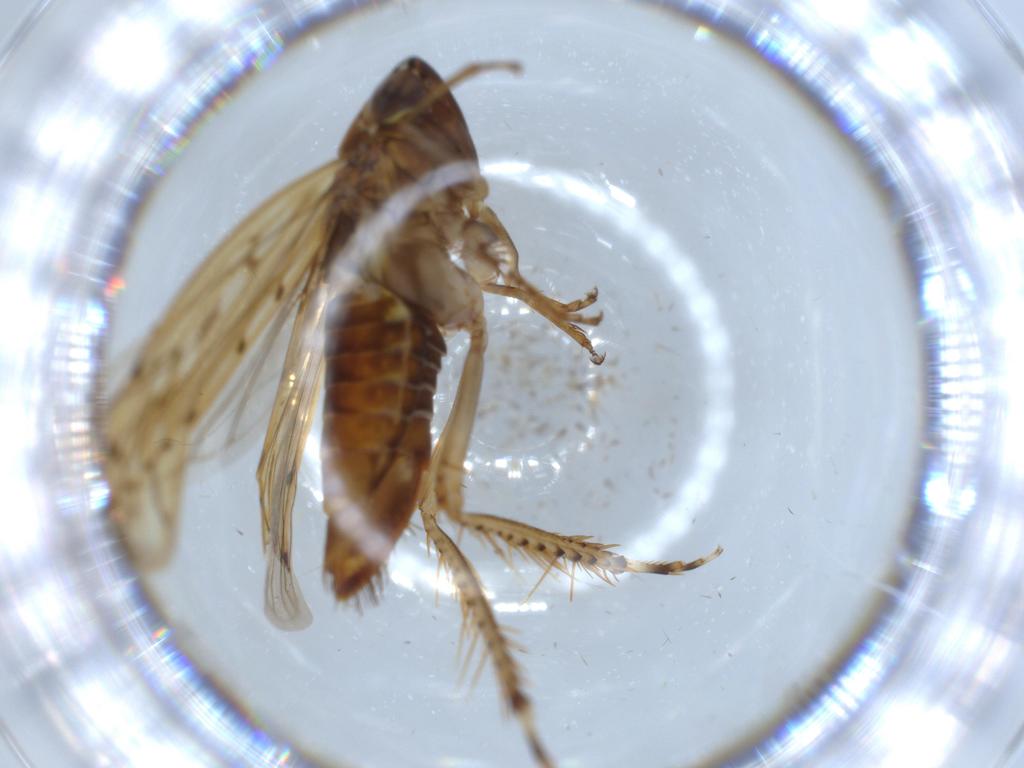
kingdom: Animalia
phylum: Arthropoda
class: Insecta
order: Hemiptera
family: Cicadellidae
